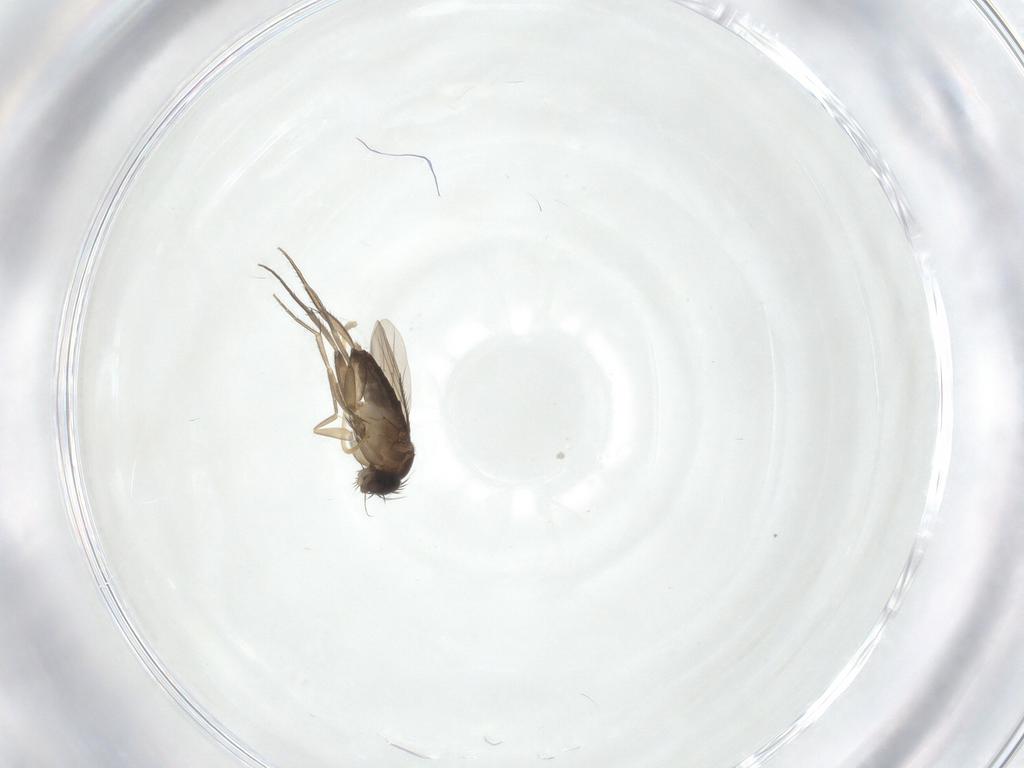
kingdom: Animalia
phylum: Arthropoda
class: Insecta
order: Diptera
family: Phoridae
